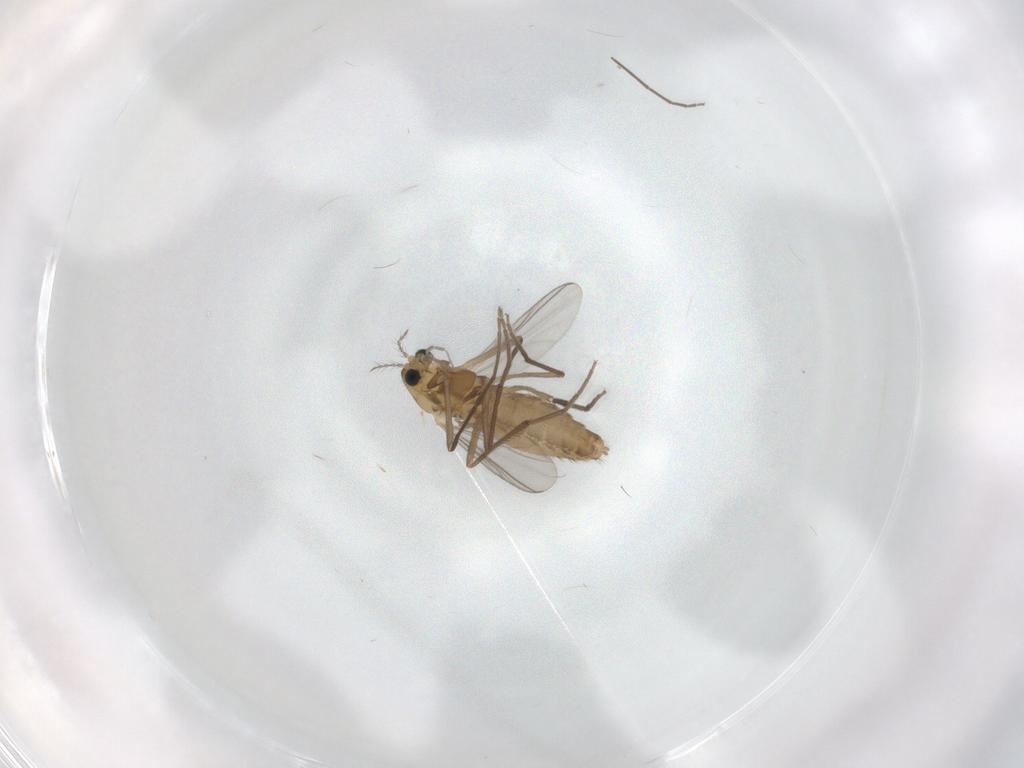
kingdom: Animalia
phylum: Arthropoda
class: Insecta
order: Diptera
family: Chironomidae
